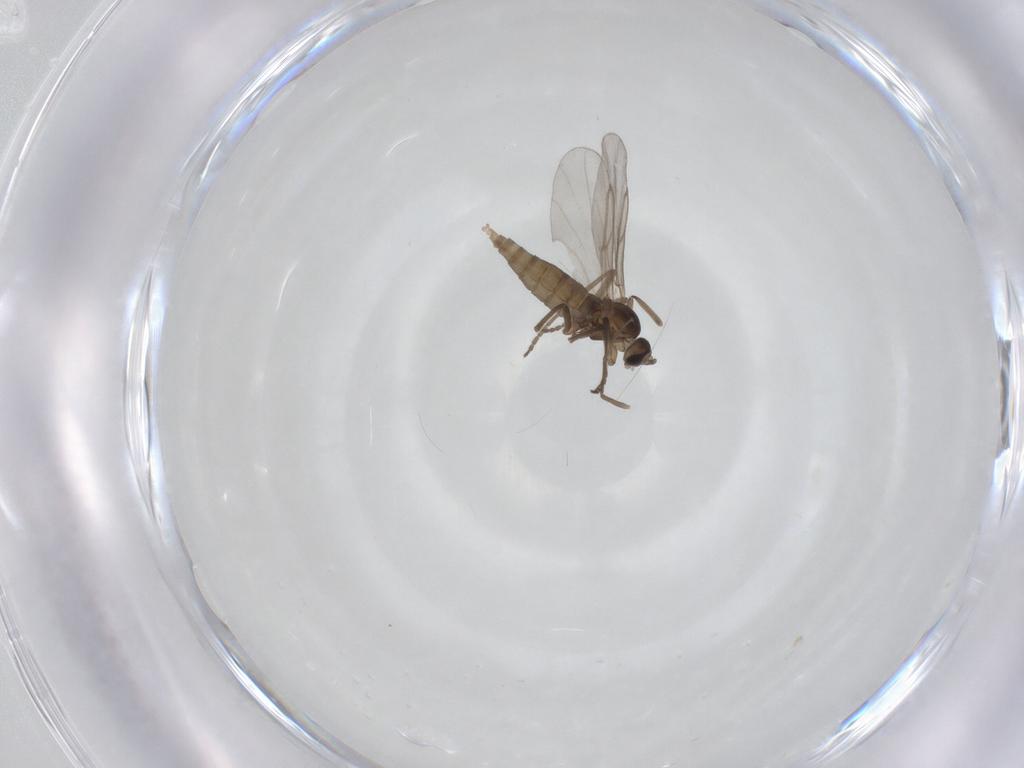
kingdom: Animalia
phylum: Arthropoda
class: Insecta
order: Diptera
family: Cecidomyiidae
